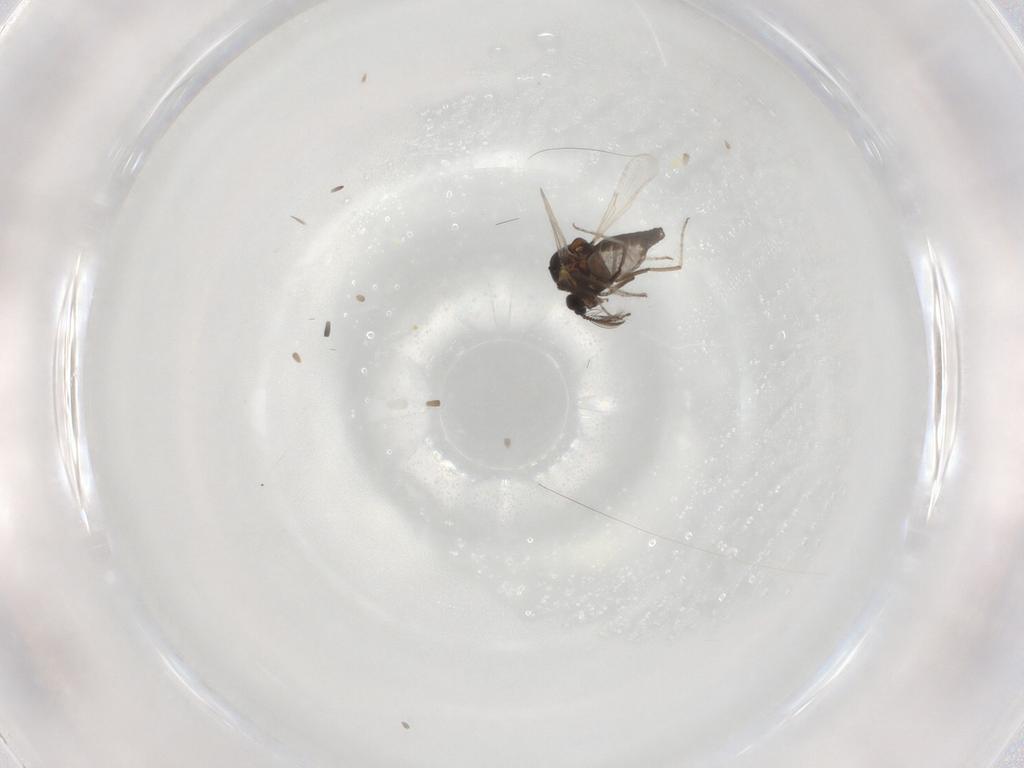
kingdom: Animalia
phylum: Arthropoda
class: Insecta
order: Diptera
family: Ceratopogonidae
